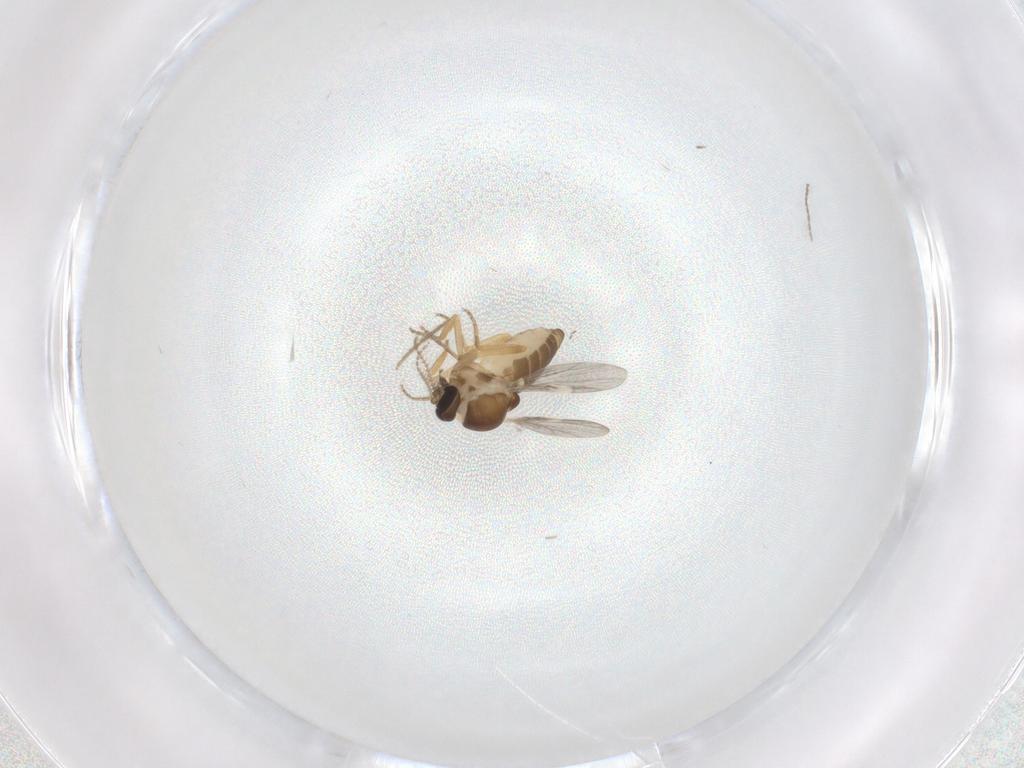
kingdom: Animalia
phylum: Arthropoda
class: Insecta
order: Diptera
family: Ceratopogonidae
